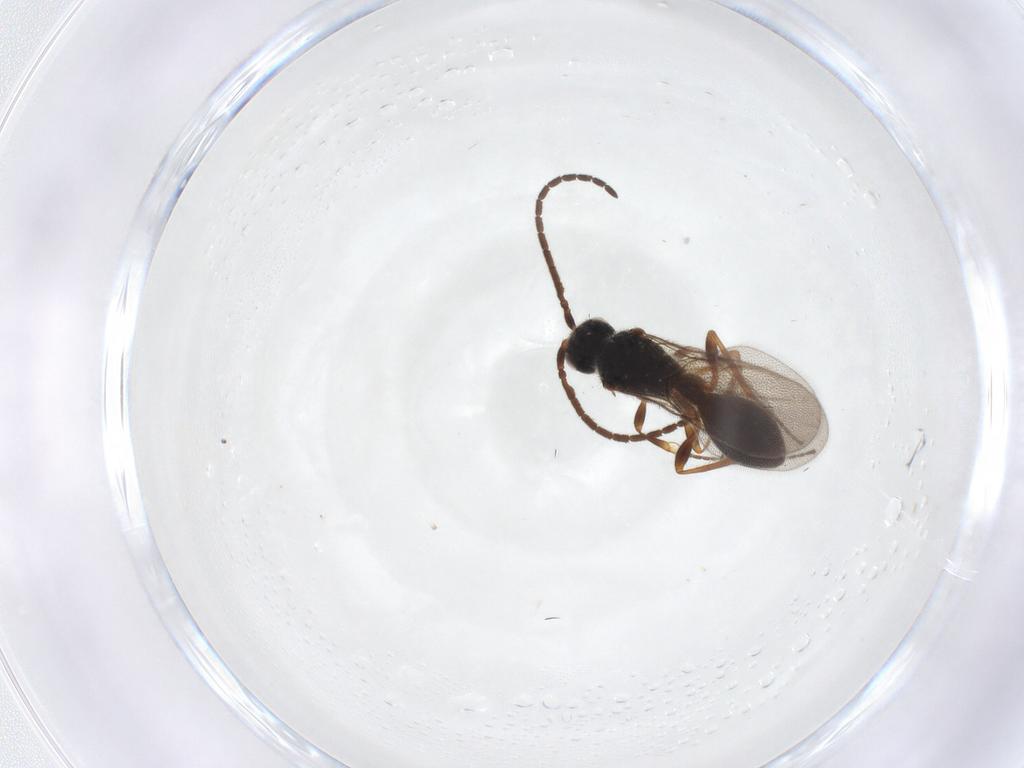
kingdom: Animalia
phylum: Arthropoda
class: Insecta
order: Hymenoptera
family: Diapriidae
